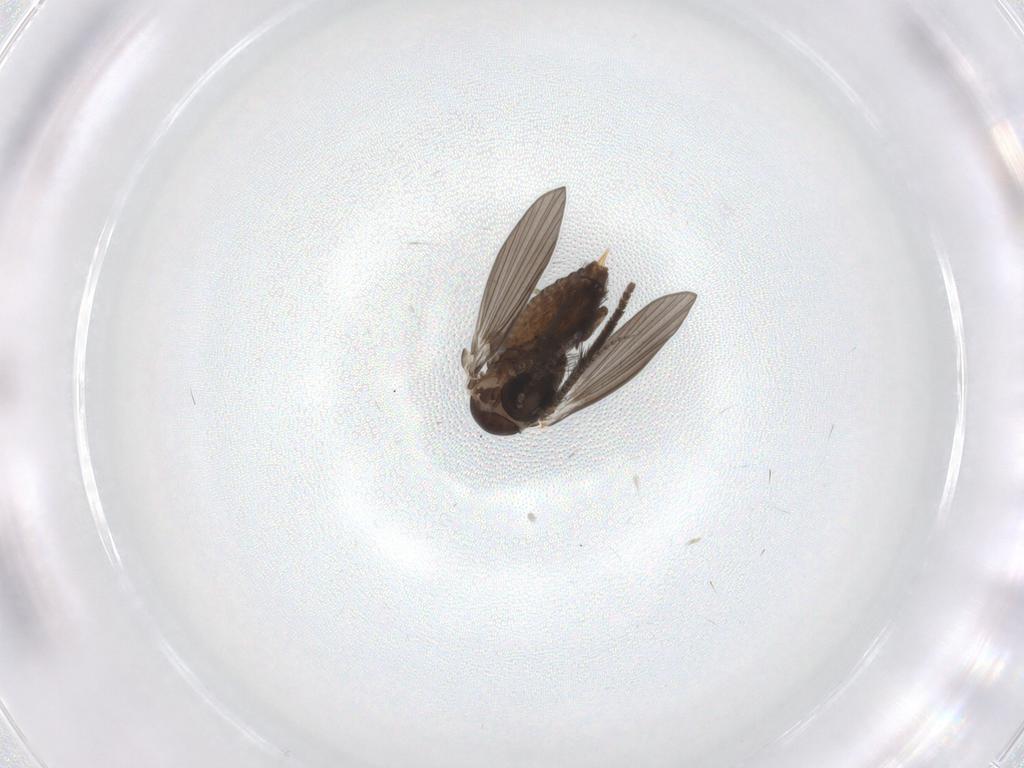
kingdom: Animalia
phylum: Arthropoda
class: Insecta
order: Diptera
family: Psychodidae
